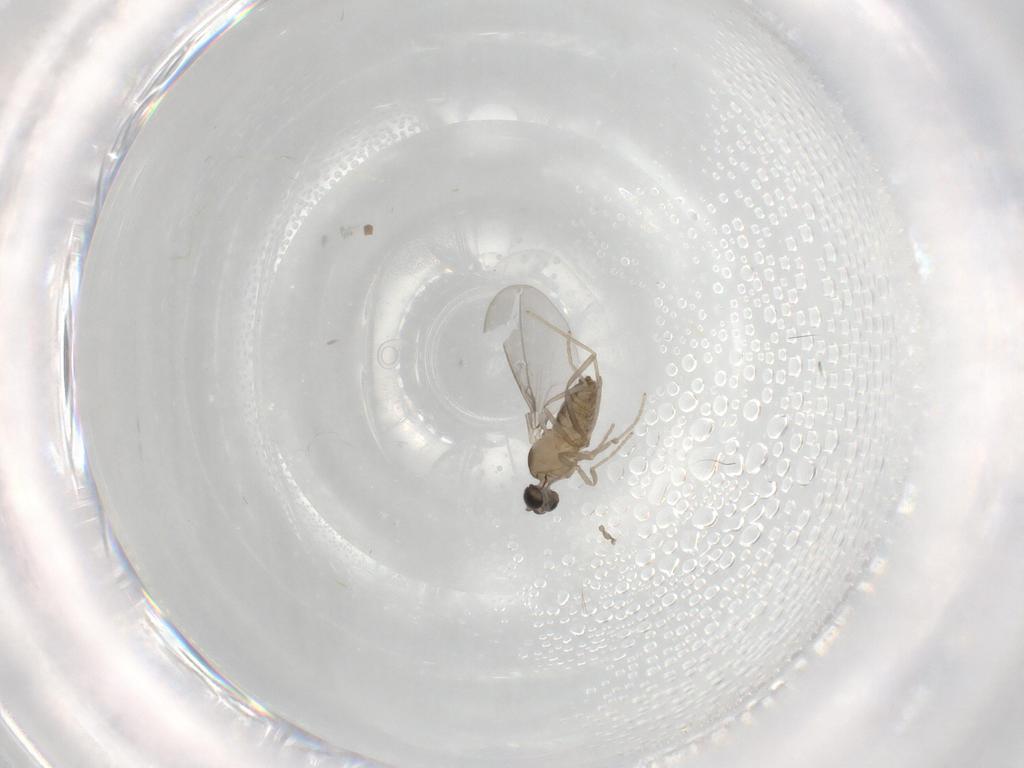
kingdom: Animalia
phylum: Arthropoda
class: Insecta
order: Diptera
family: Cecidomyiidae
